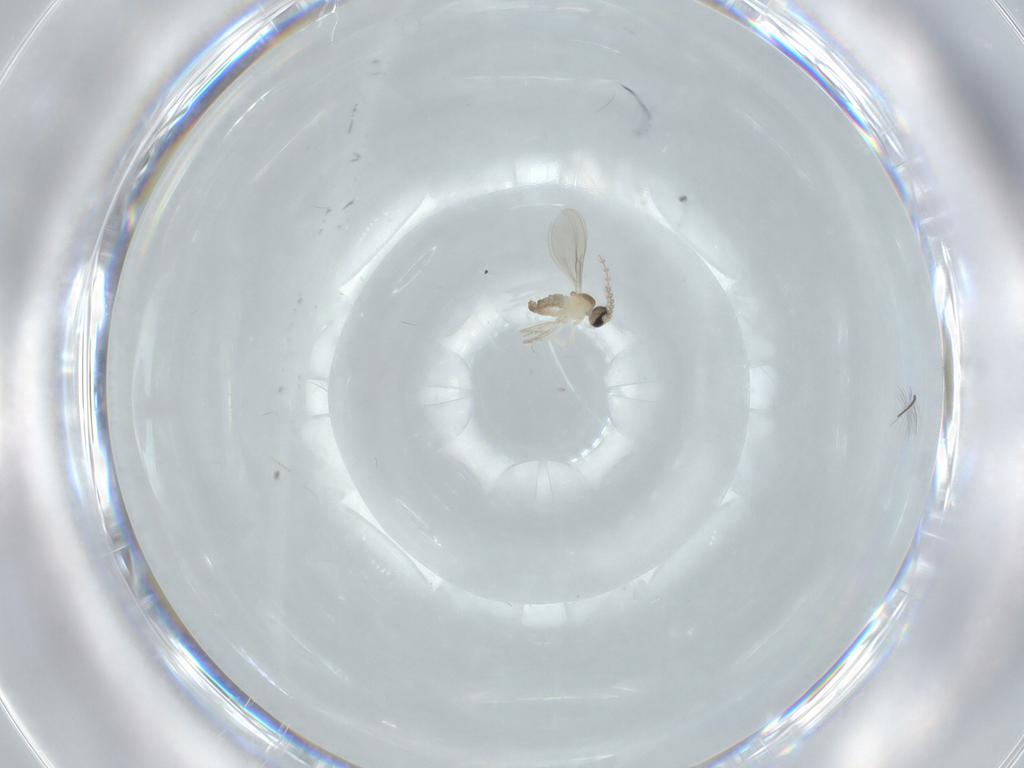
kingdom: Animalia
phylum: Arthropoda
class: Insecta
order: Diptera
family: Cecidomyiidae
